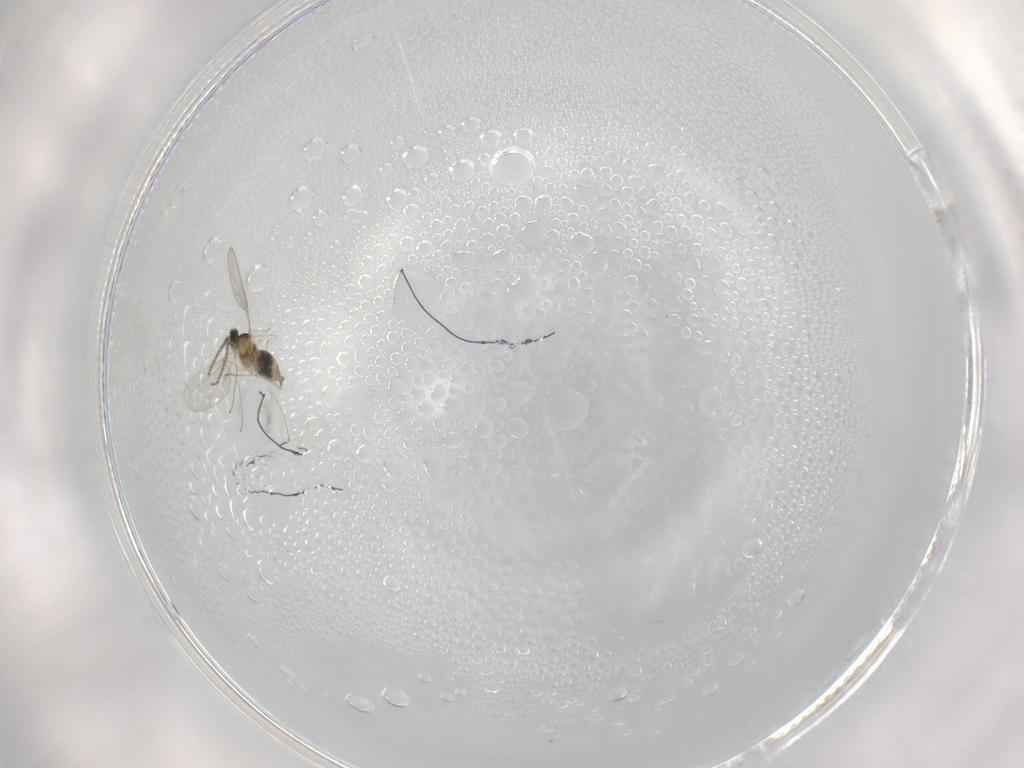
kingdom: Animalia
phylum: Arthropoda
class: Insecta
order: Diptera
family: Cecidomyiidae
